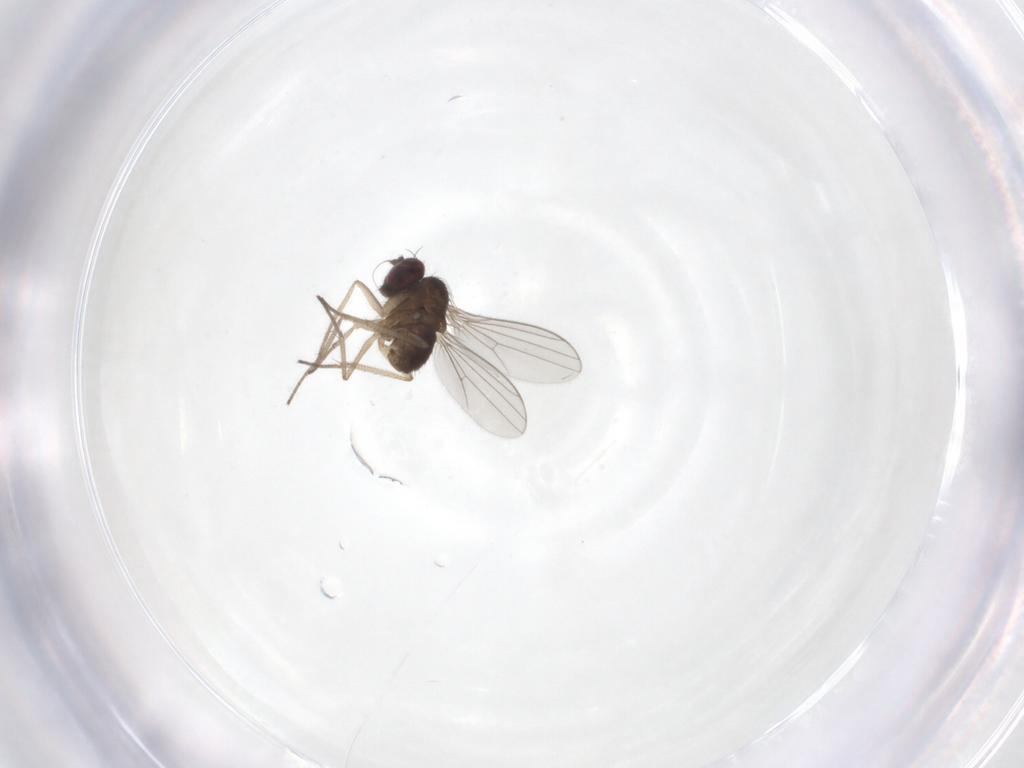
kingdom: Animalia
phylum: Arthropoda
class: Insecta
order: Diptera
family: Dolichopodidae
